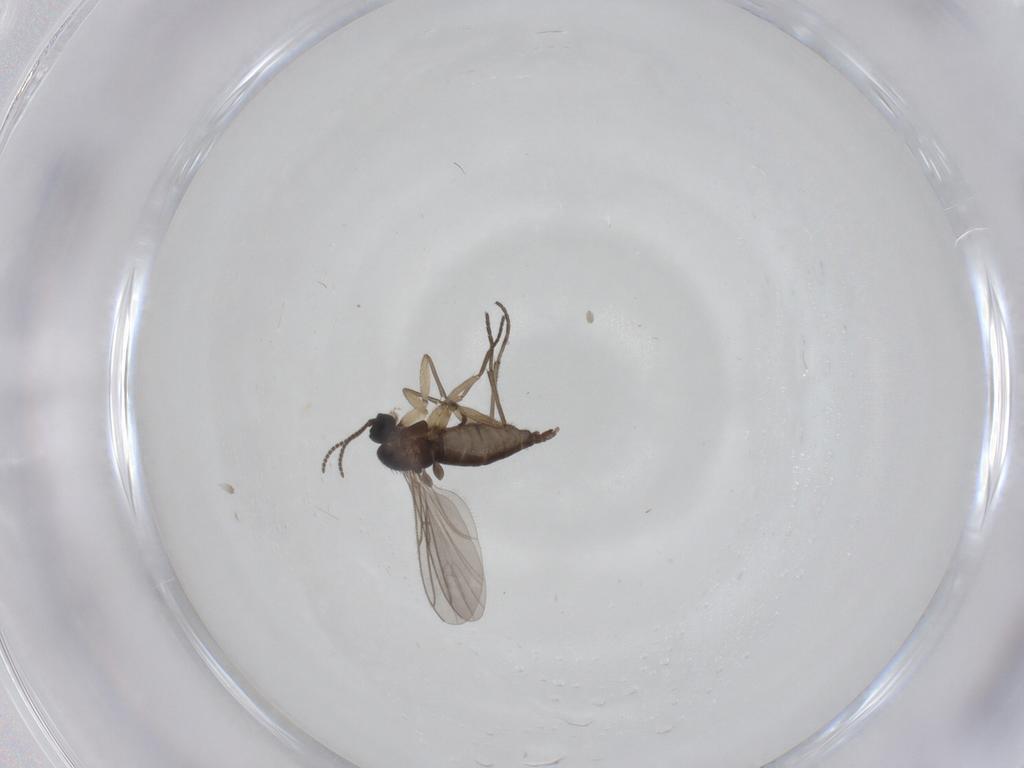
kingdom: Animalia
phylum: Arthropoda
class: Insecta
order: Diptera
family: Sciaridae
